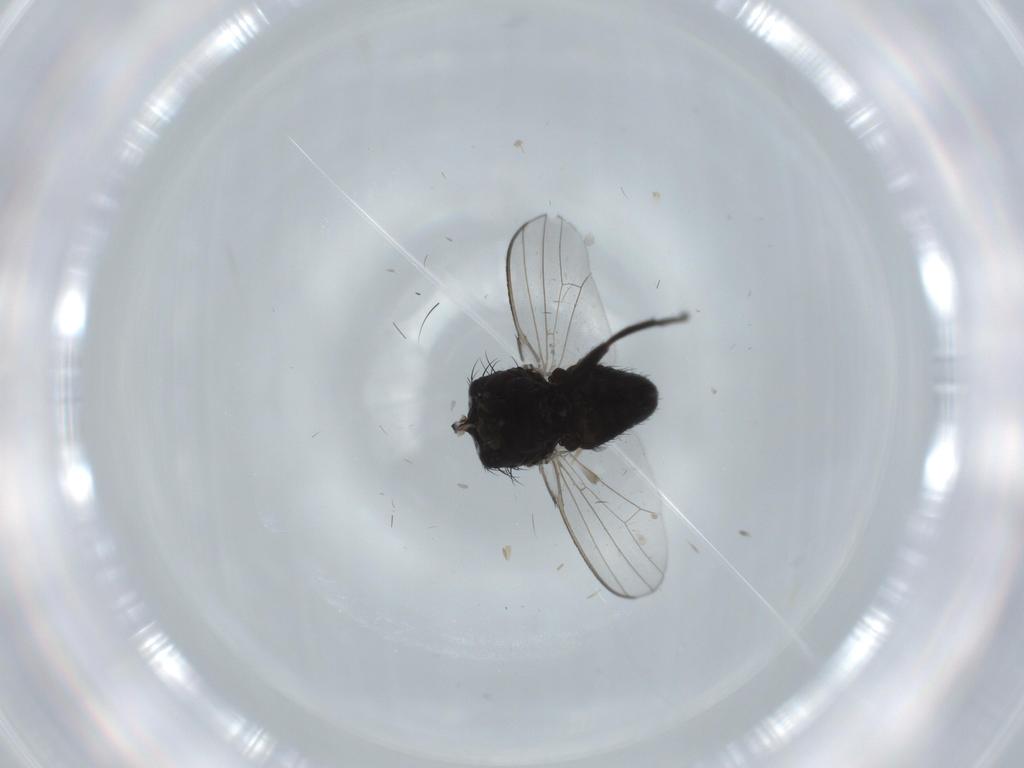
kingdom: Animalia
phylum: Arthropoda
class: Insecta
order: Diptera
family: Milichiidae
